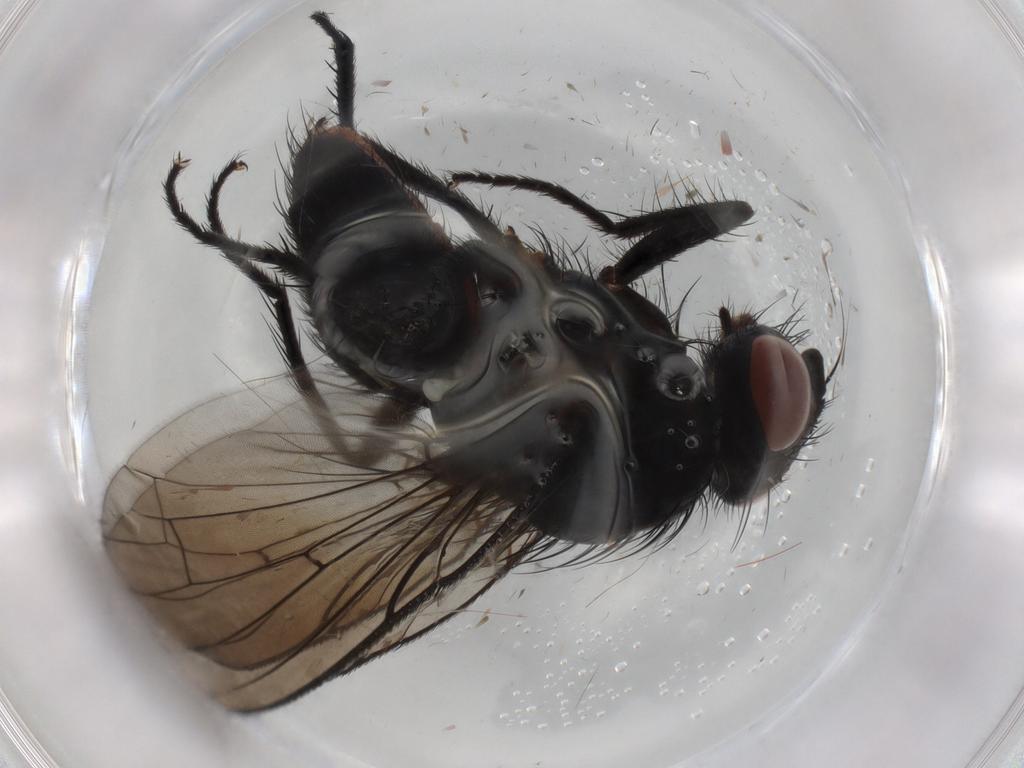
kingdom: Animalia
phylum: Arthropoda
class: Insecta
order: Diptera
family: Anthomyiidae
